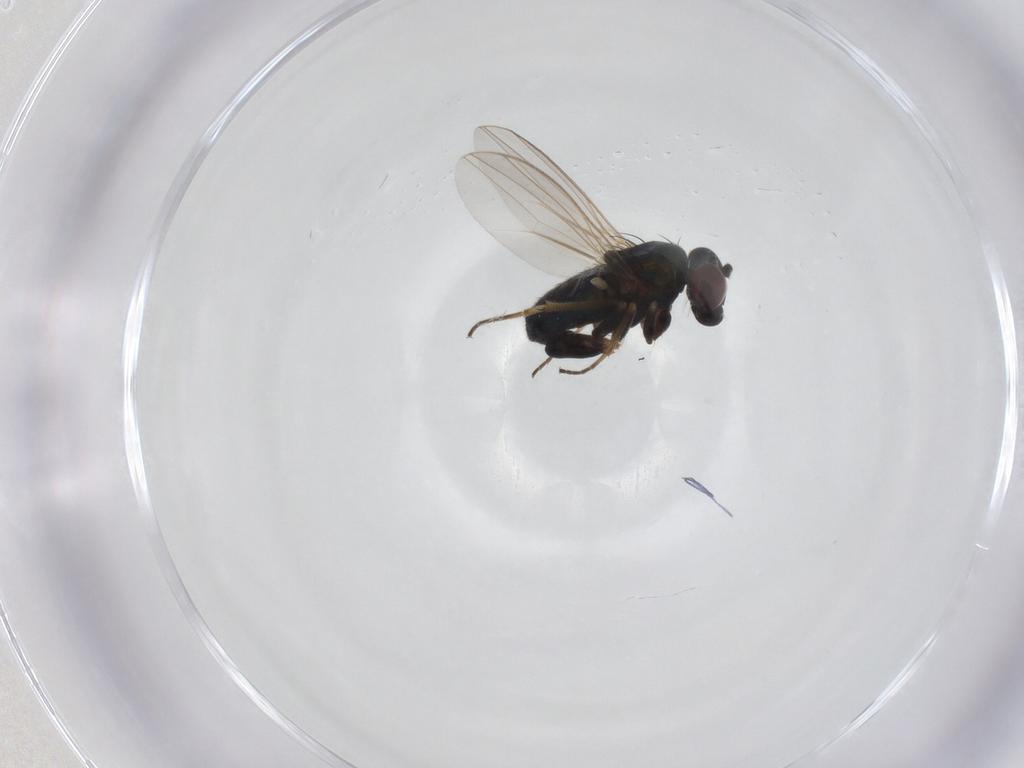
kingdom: Animalia
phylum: Arthropoda
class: Insecta
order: Diptera
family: Dolichopodidae
